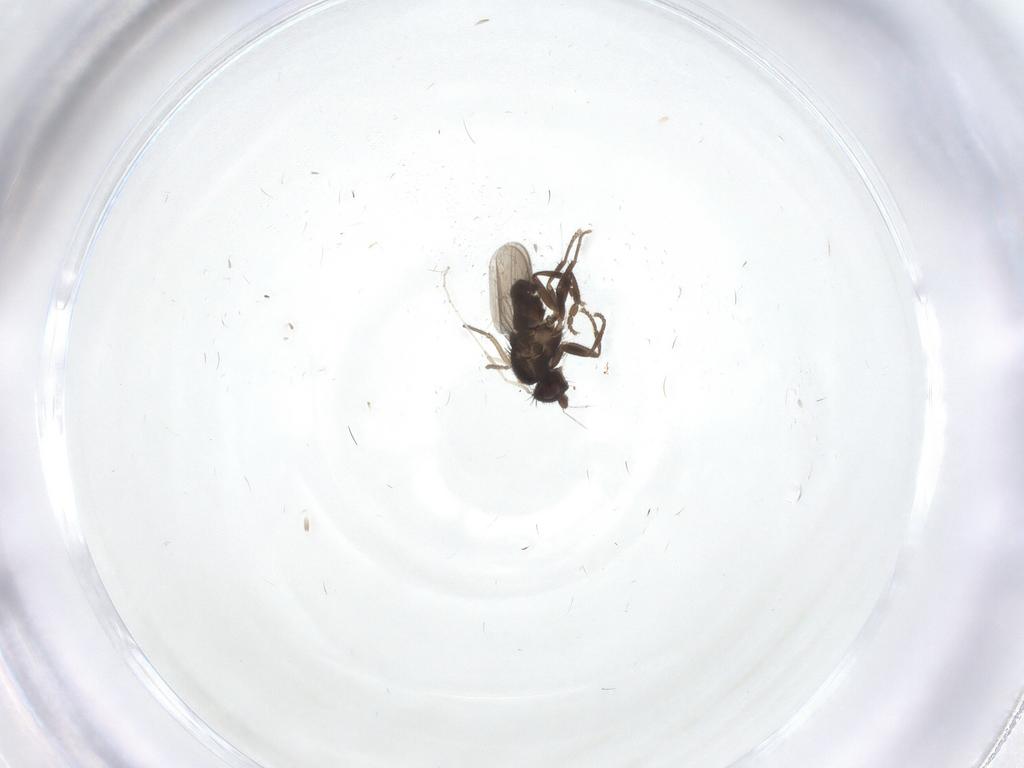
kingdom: Animalia
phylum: Arthropoda
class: Insecta
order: Diptera
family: Sphaeroceridae
